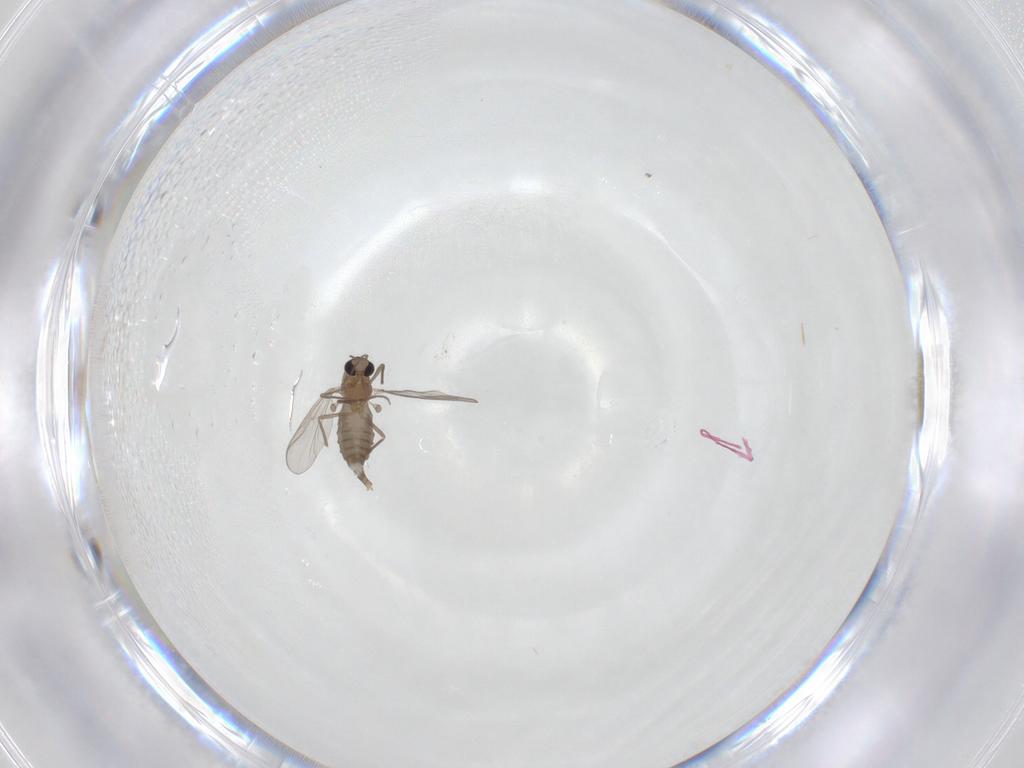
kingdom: Animalia
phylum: Arthropoda
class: Insecta
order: Diptera
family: Chironomidae
